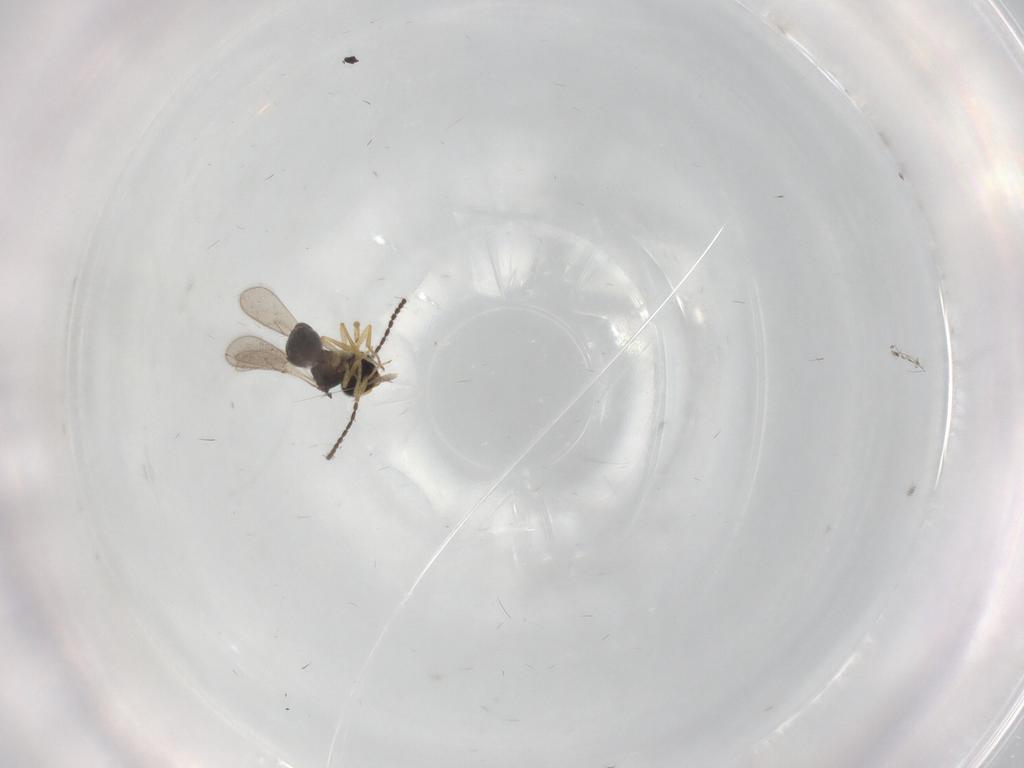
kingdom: Animalia
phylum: Arthropoda
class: Insecta
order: Hymenoptera
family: Scelionidae
